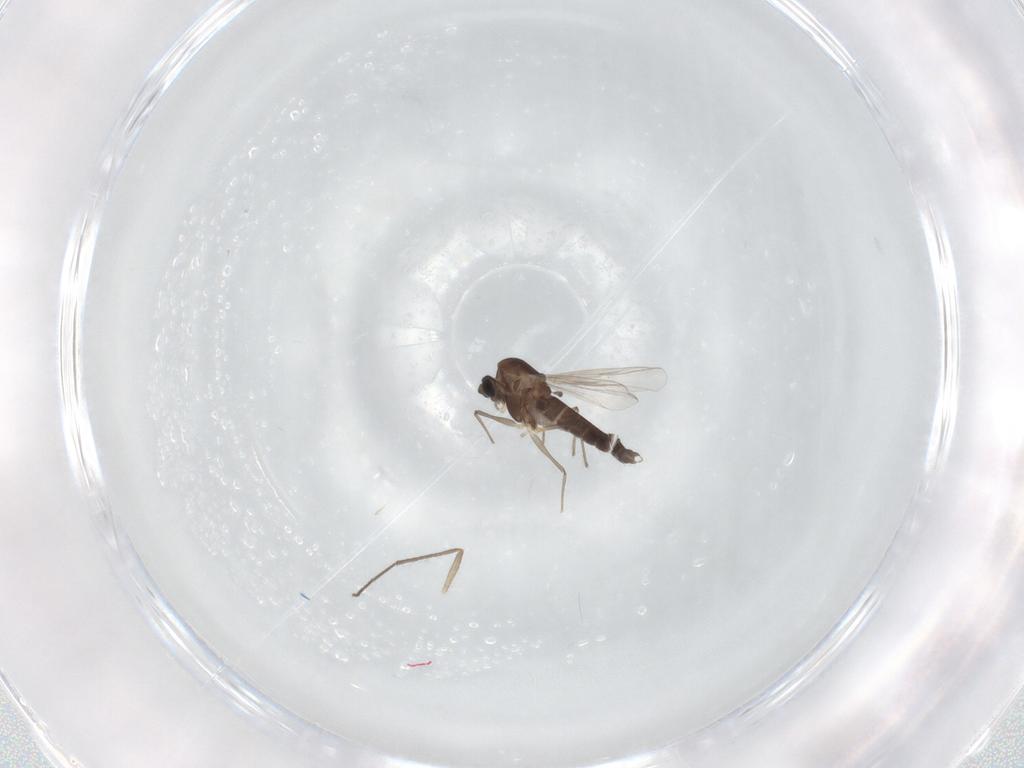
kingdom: Animalia
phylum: Arthropoda
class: Insecta
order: Diptera
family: Chironomidae
